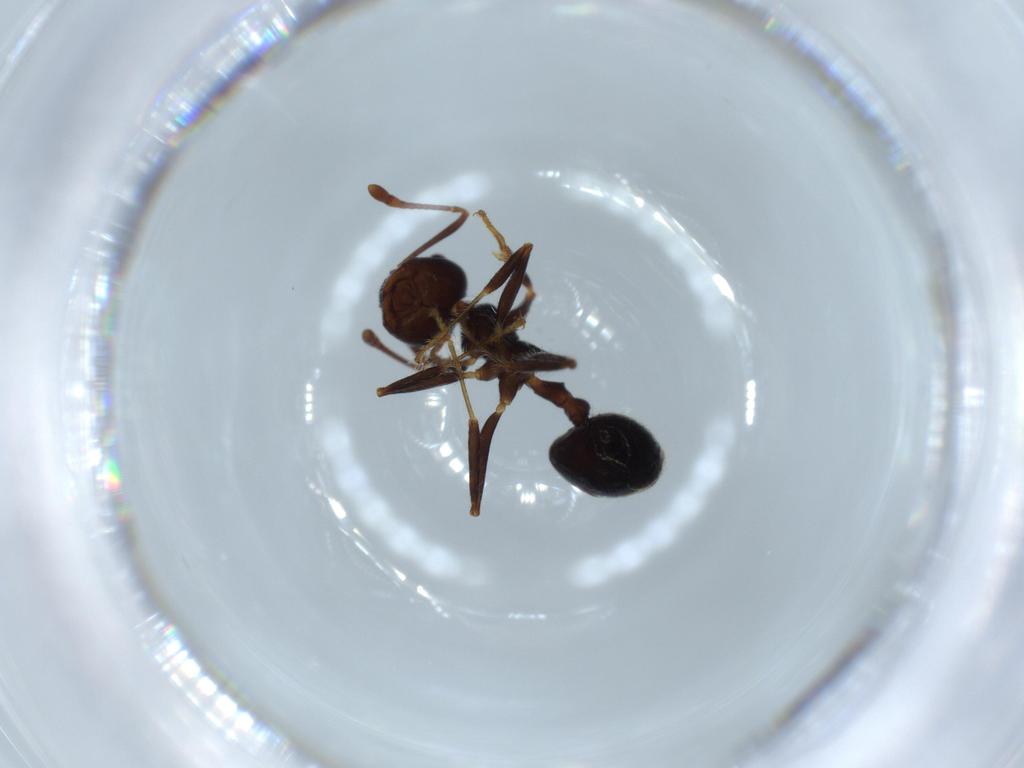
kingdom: Animalia
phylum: Arthropoda
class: Insecta
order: Hymenoptera
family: Formicidae
